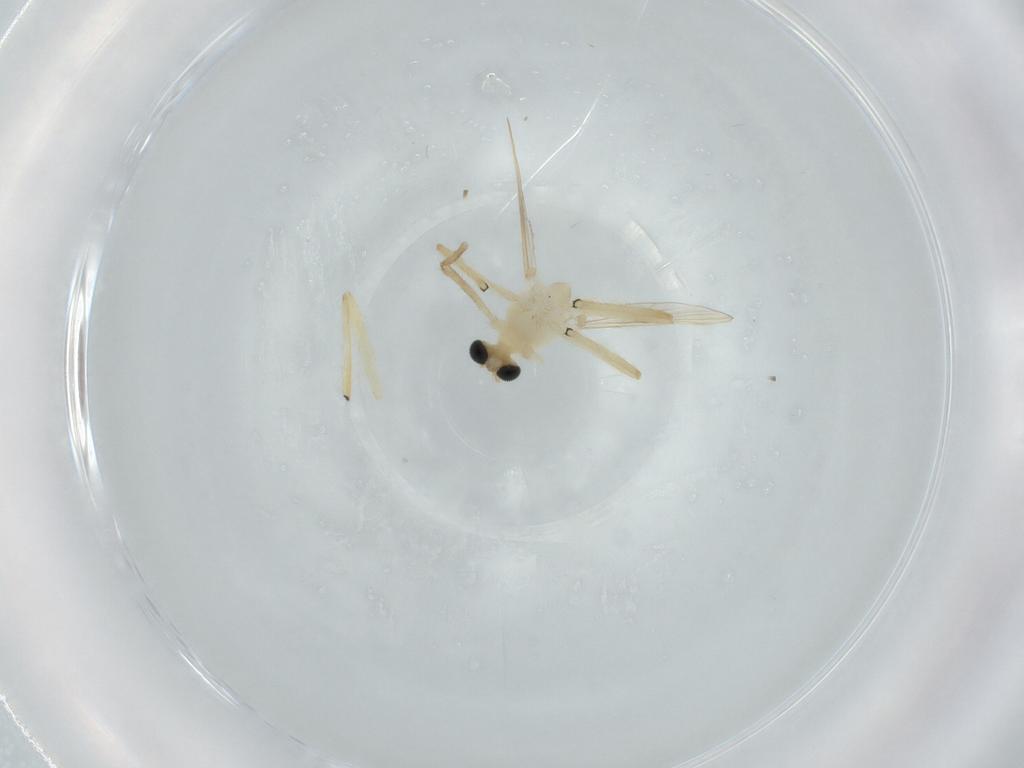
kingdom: Animalia
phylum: Arthropoda
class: Insecta
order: Diptera
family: Chironomidae
